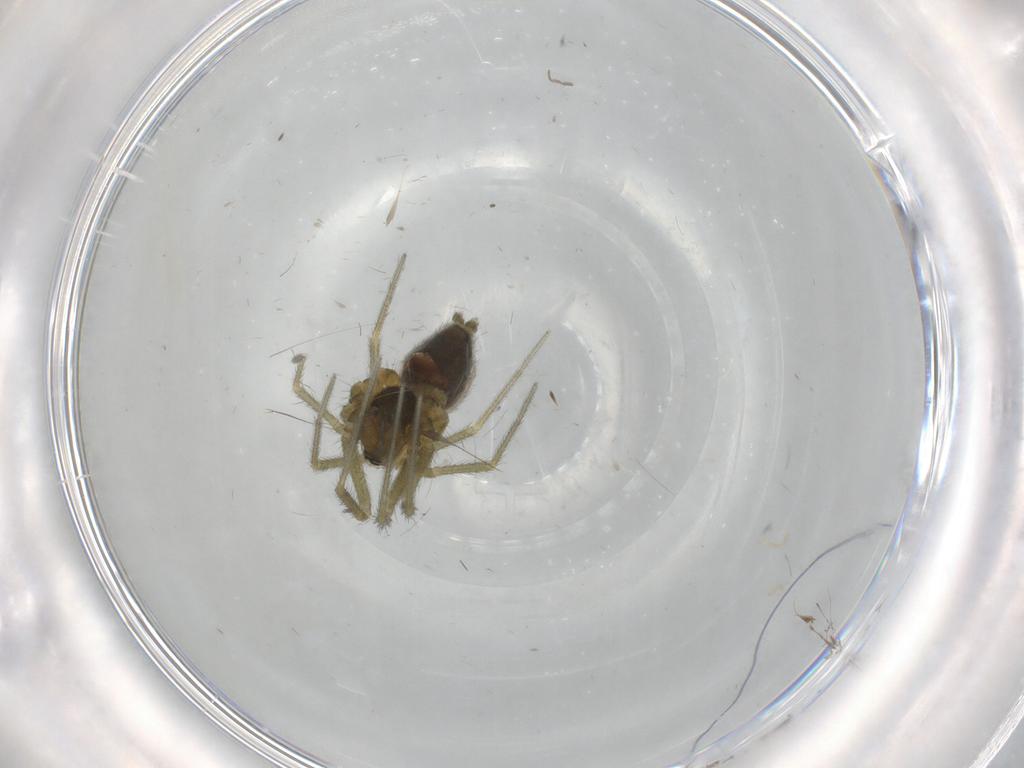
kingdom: Animalia
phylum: Arthropoda
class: Arachnida
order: Araneae
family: Linyphiidae
